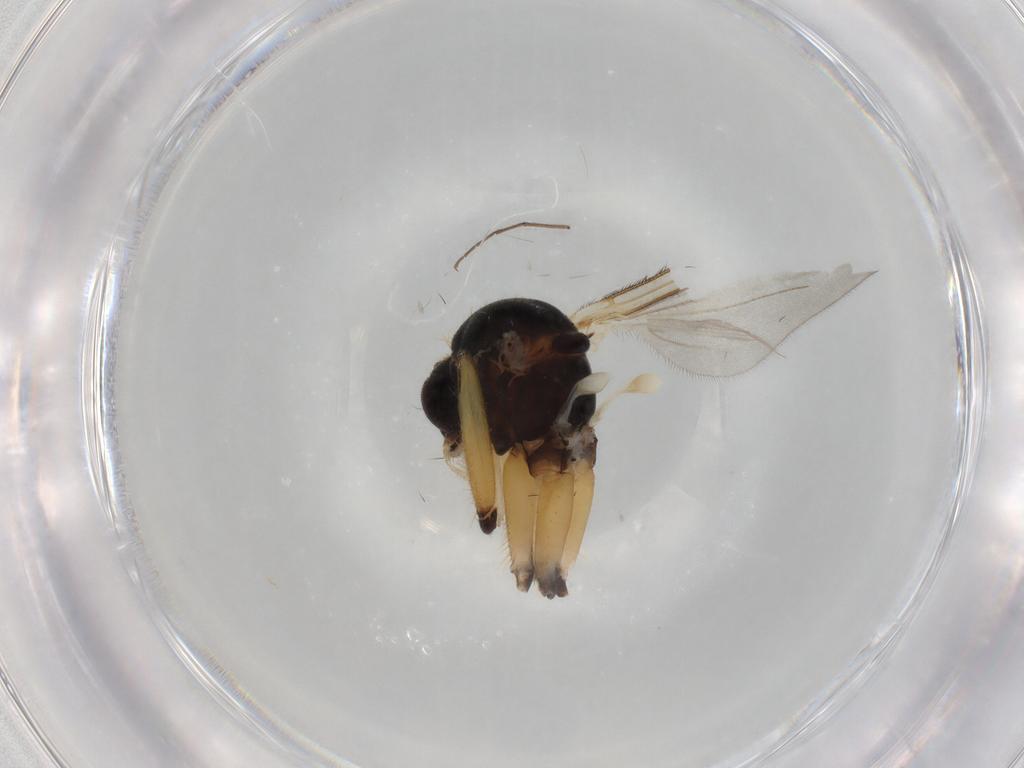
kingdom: Animalia
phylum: Arthropoda
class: Insecta
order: Diptera
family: Mycetophilidae
